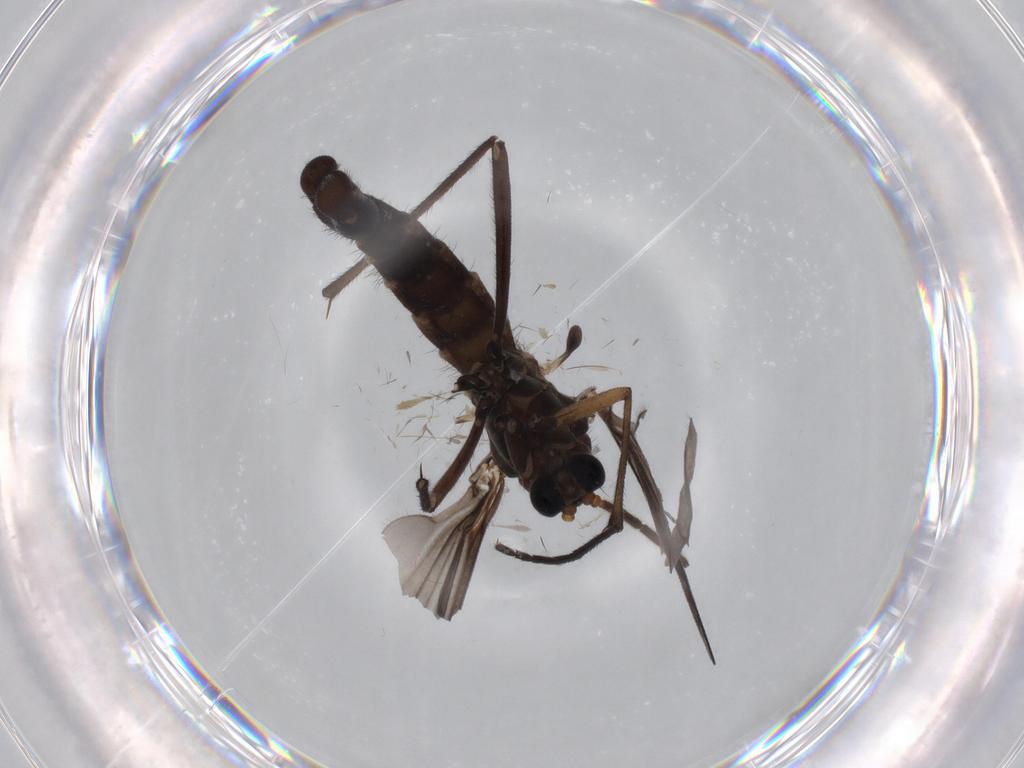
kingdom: Animalia
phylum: Arthropoda
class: Insecta
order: Diptera
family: Sciaridae
